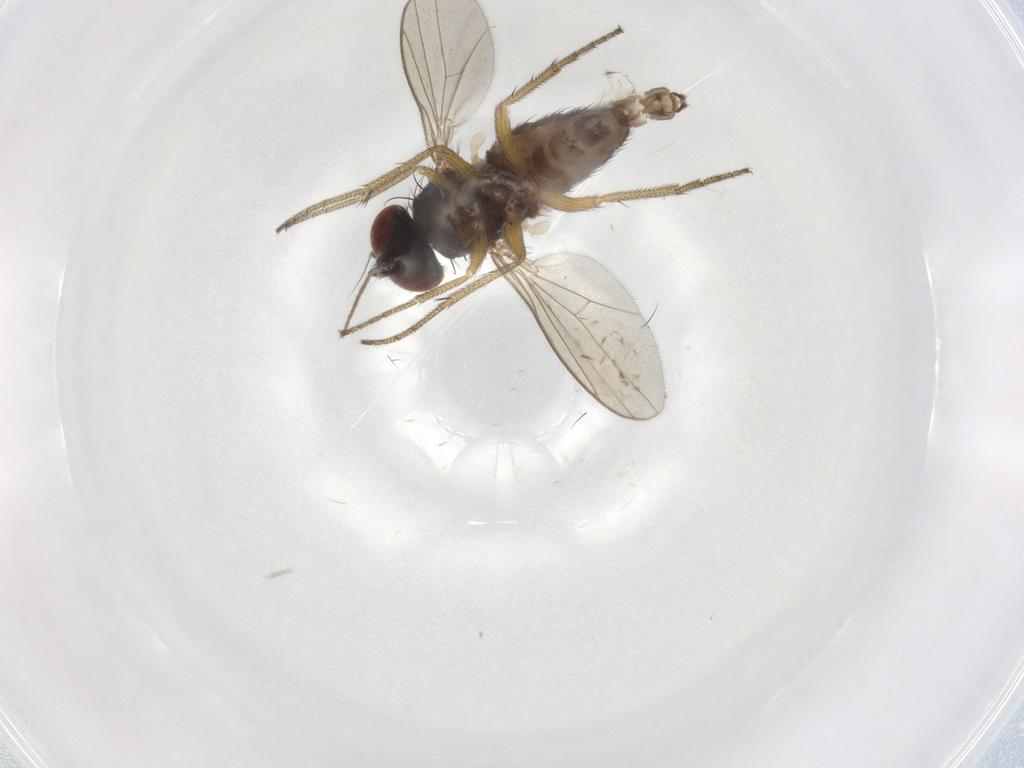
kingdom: Animalia
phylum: Arthropoda
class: Insecta
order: Diptera
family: Dolichopodidae
